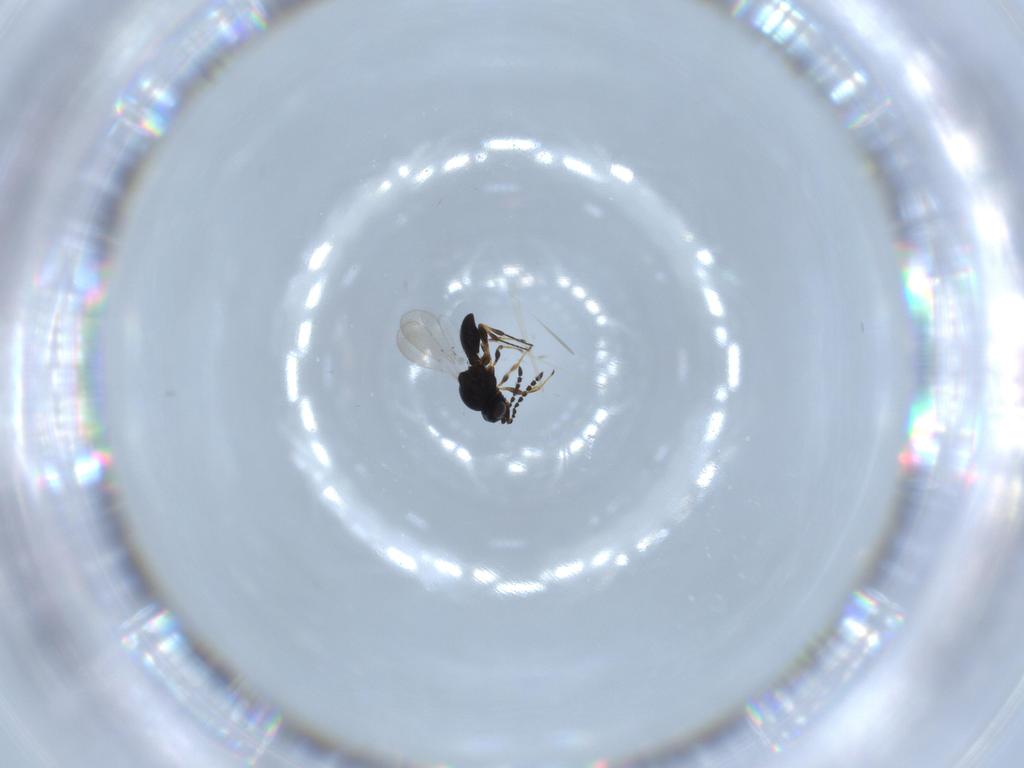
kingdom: Animalia
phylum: Arthropoda
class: Insecta
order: Hymenoptera
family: Platygastridae
